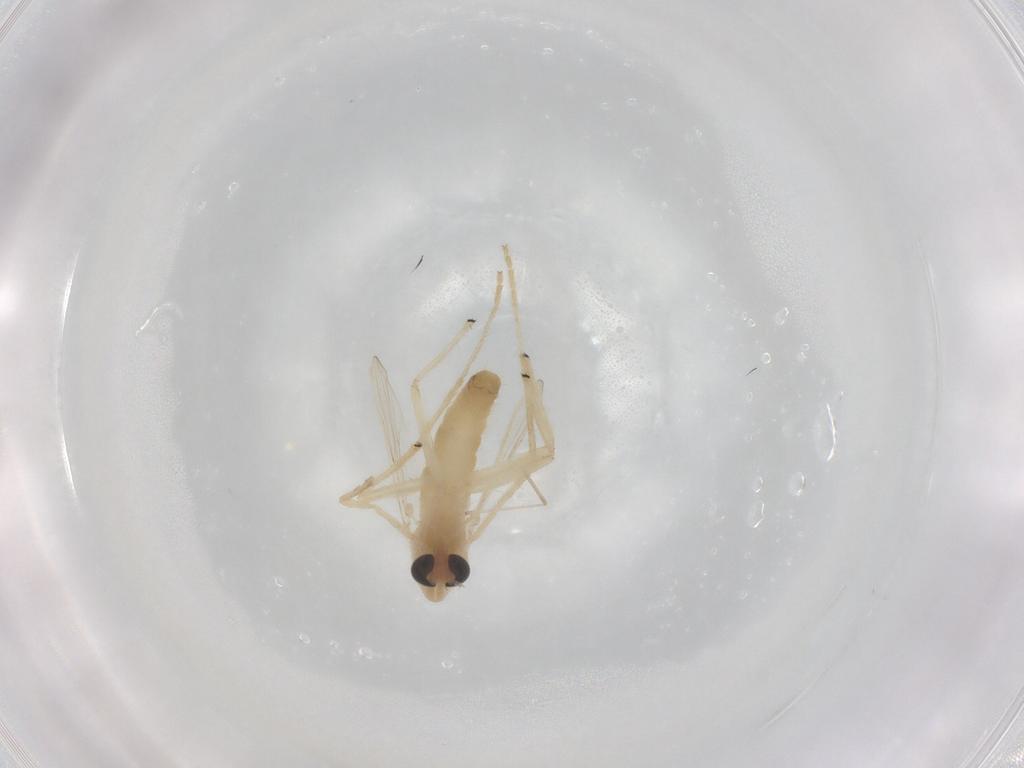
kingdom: Animalia
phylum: Arthropoda
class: Insecta
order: Diptera
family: Chironomidae
